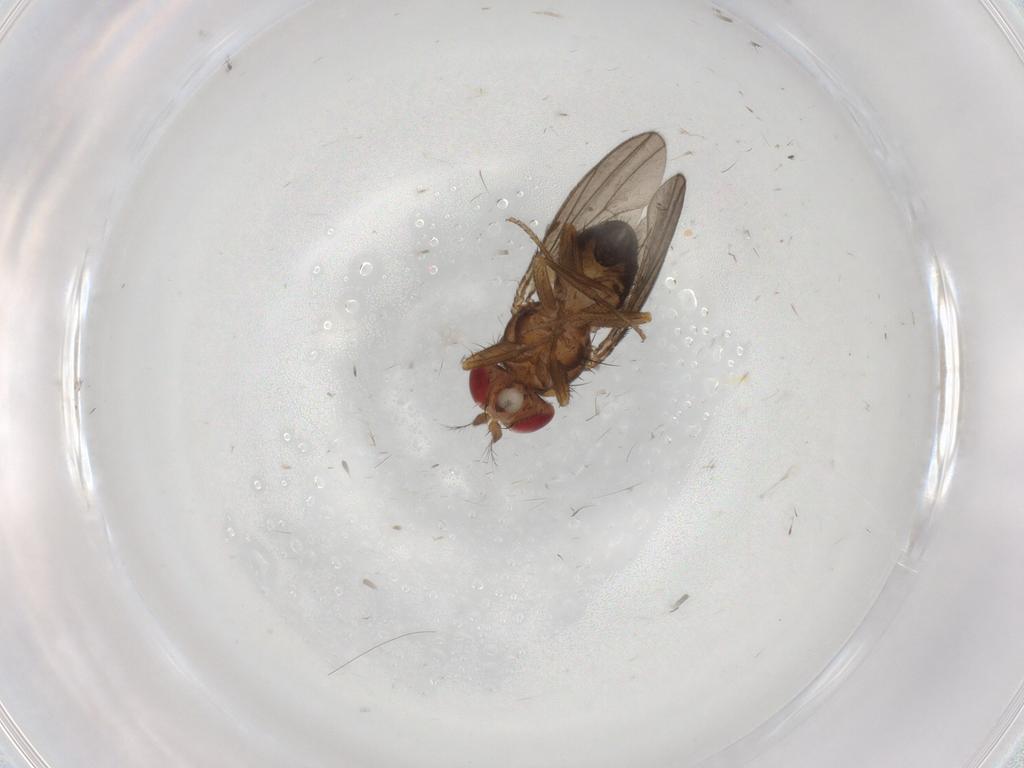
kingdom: Animalia
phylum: Arthropoda
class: Insecta
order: Diptera
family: Drosophilidae
